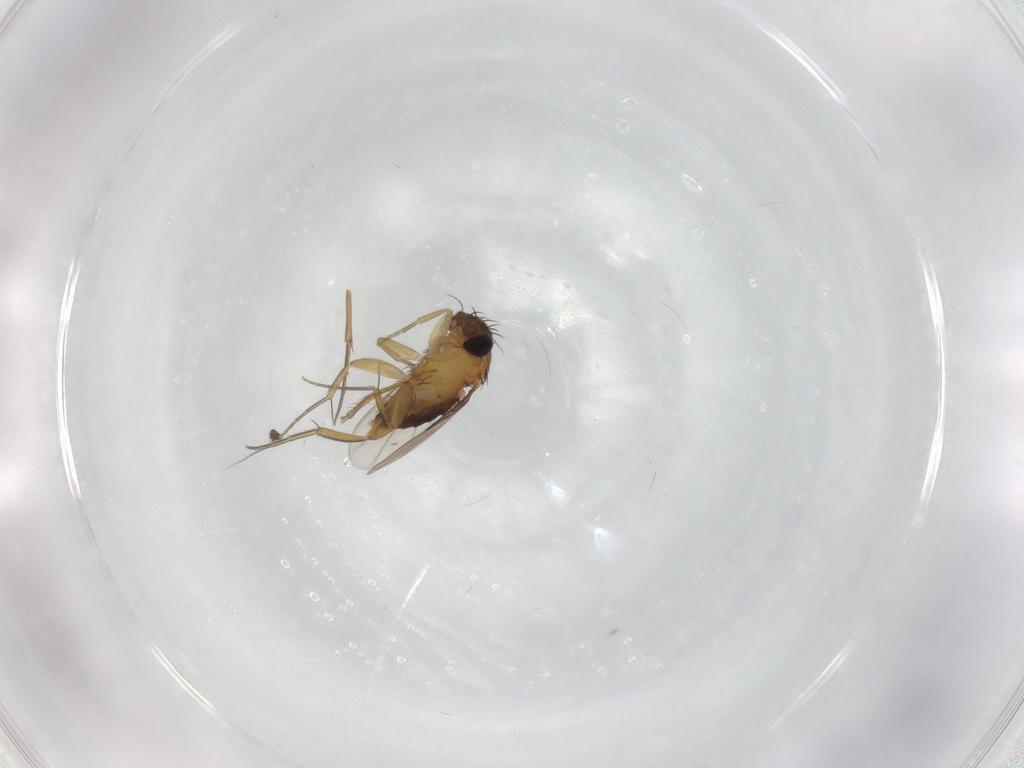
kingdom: Animalia
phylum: Arthropoda
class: Insecta
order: Diptera
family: Phoridae
